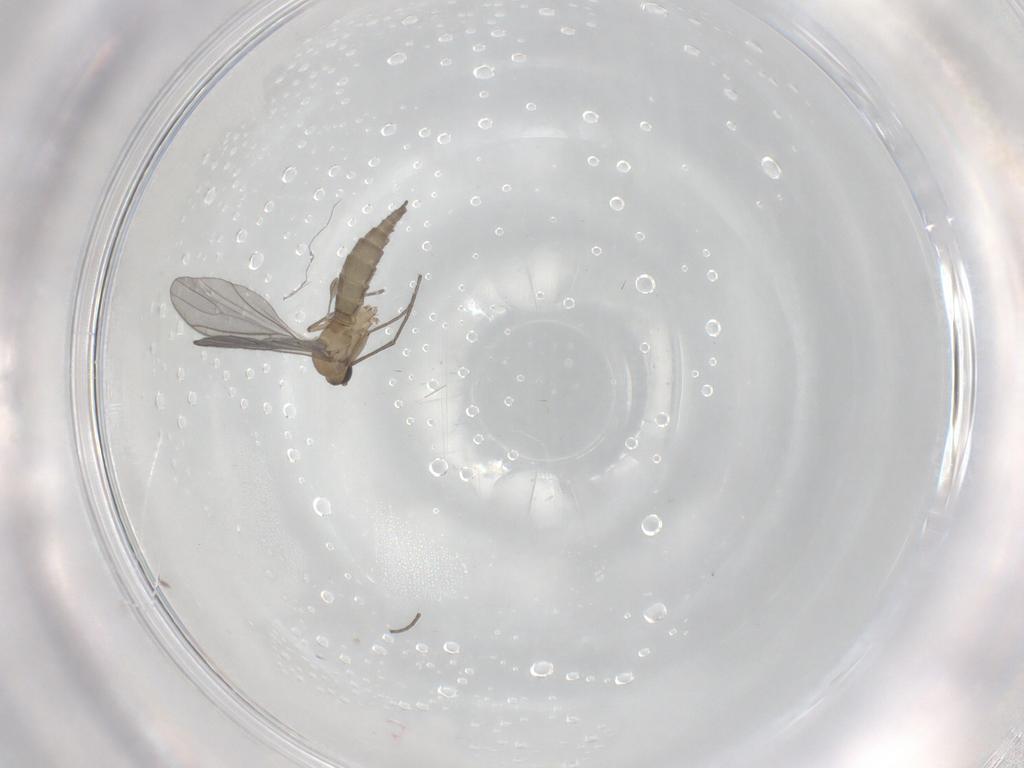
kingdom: Animalia
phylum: Arthropoda
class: Insecta
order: Diptera
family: Sciaridae
